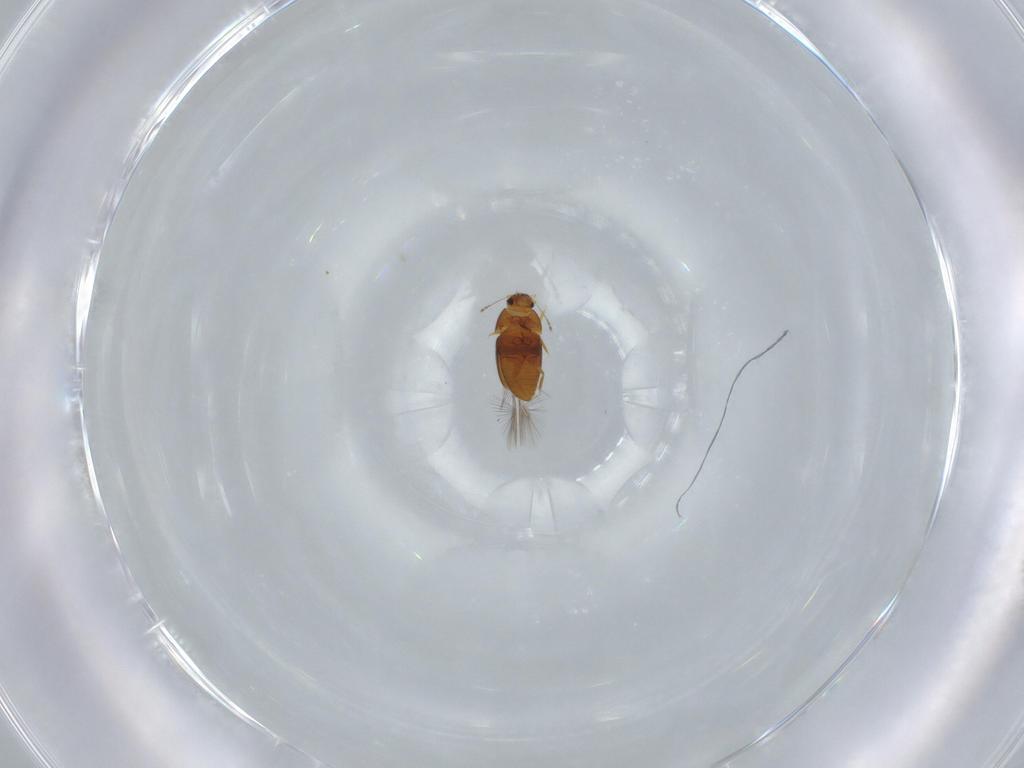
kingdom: Animalia
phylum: Arthropoda
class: Insecta
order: Coleoptera
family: Ptiliidae
